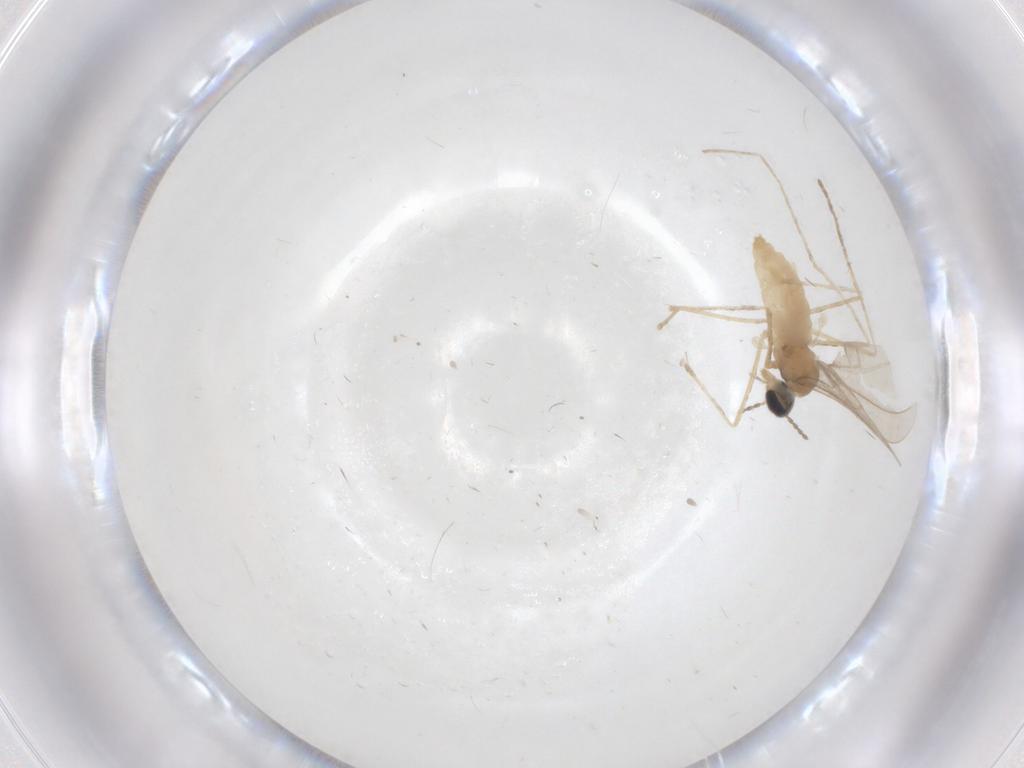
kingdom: Animalia
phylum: Arthropoda
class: Insecta
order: Diptera
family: Cecidomyiidae
